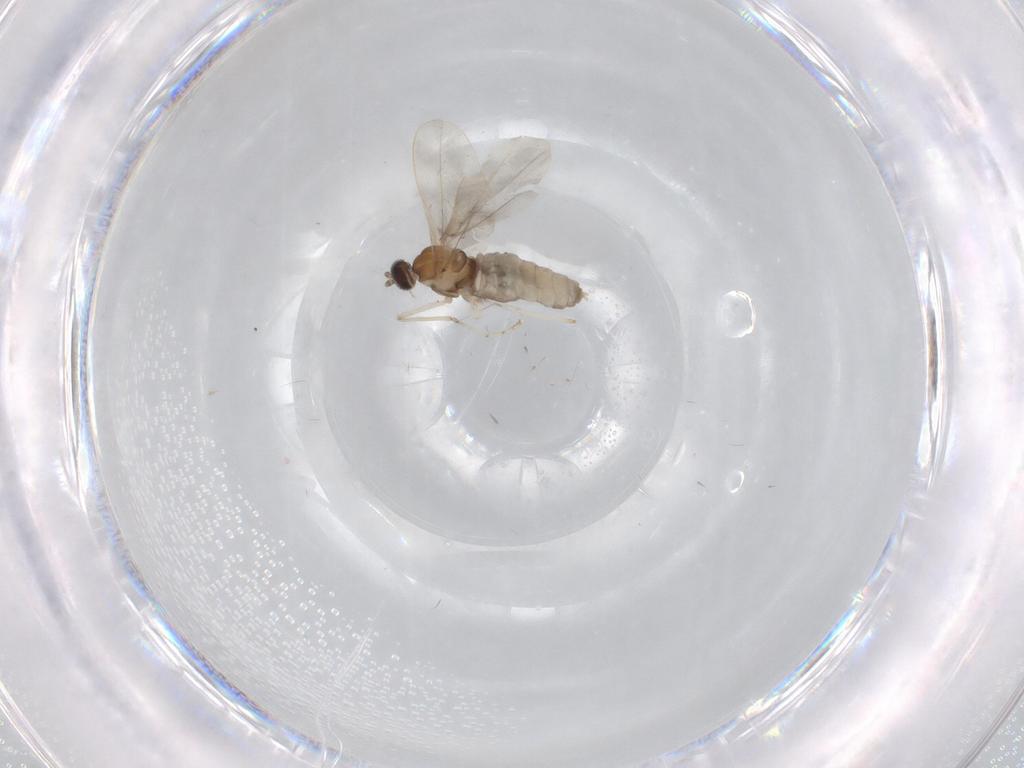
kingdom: Animalia
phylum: Arthropoda
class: Insecta
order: Diptera
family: Cecidomyiidae
